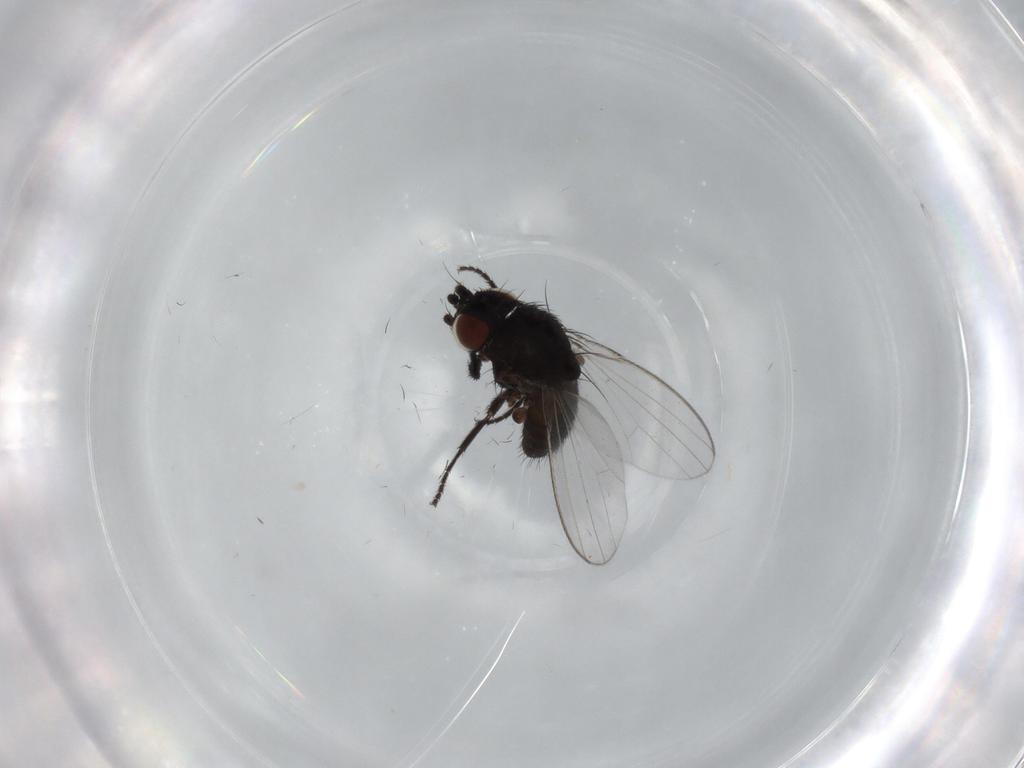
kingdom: Animalia
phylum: Arthropoda
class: Insecta
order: Diptera
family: Milichiidae
